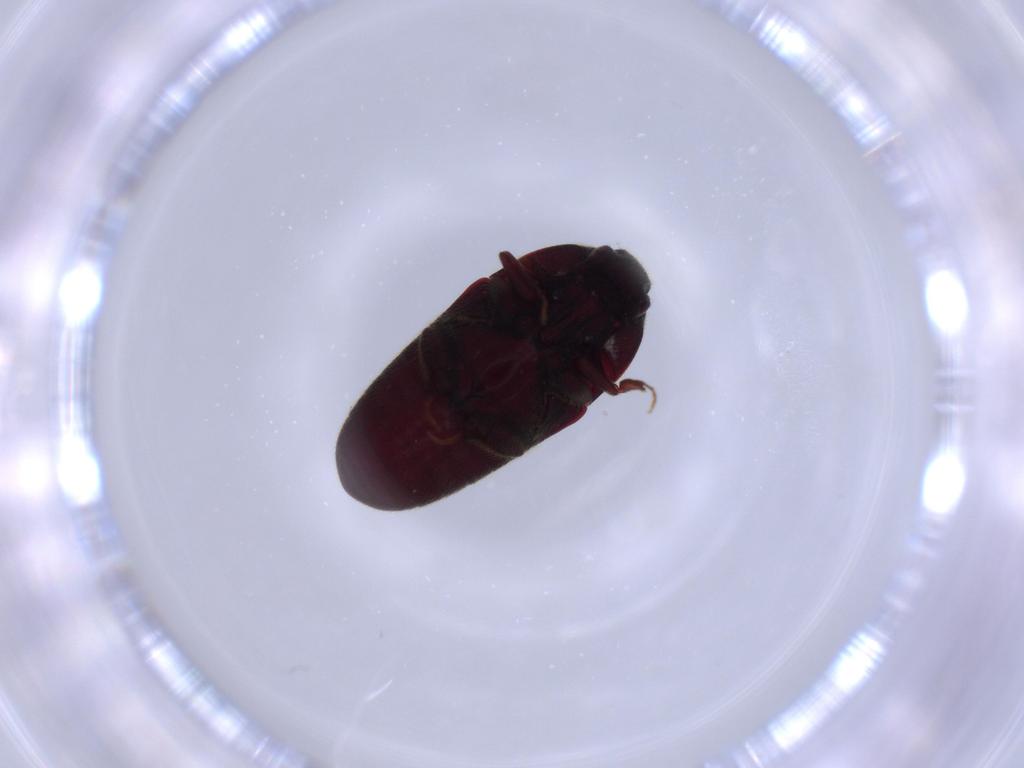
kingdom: Animalia
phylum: Arthropoda
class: Insecta
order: Coleoptera
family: Throscidae
